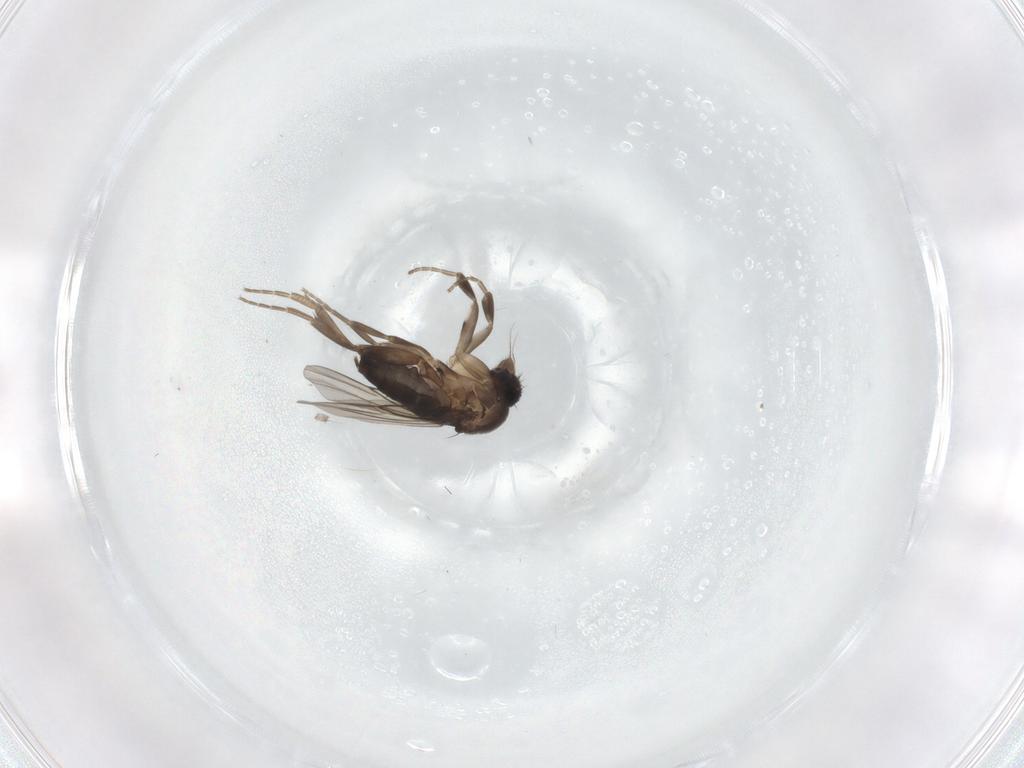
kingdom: Animalia
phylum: Arthropoda
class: Insecta
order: Diptera
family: Phoridae
